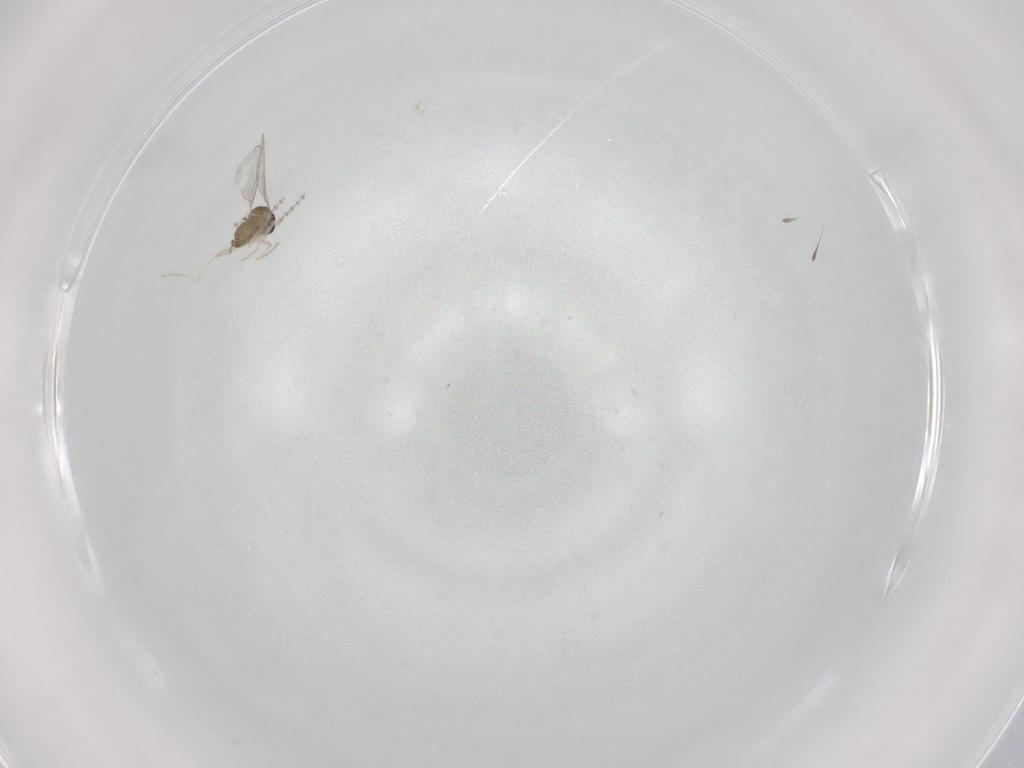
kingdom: Animalia
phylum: Arthropoda
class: Insecta
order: Diptera
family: Cecidomyiidae
